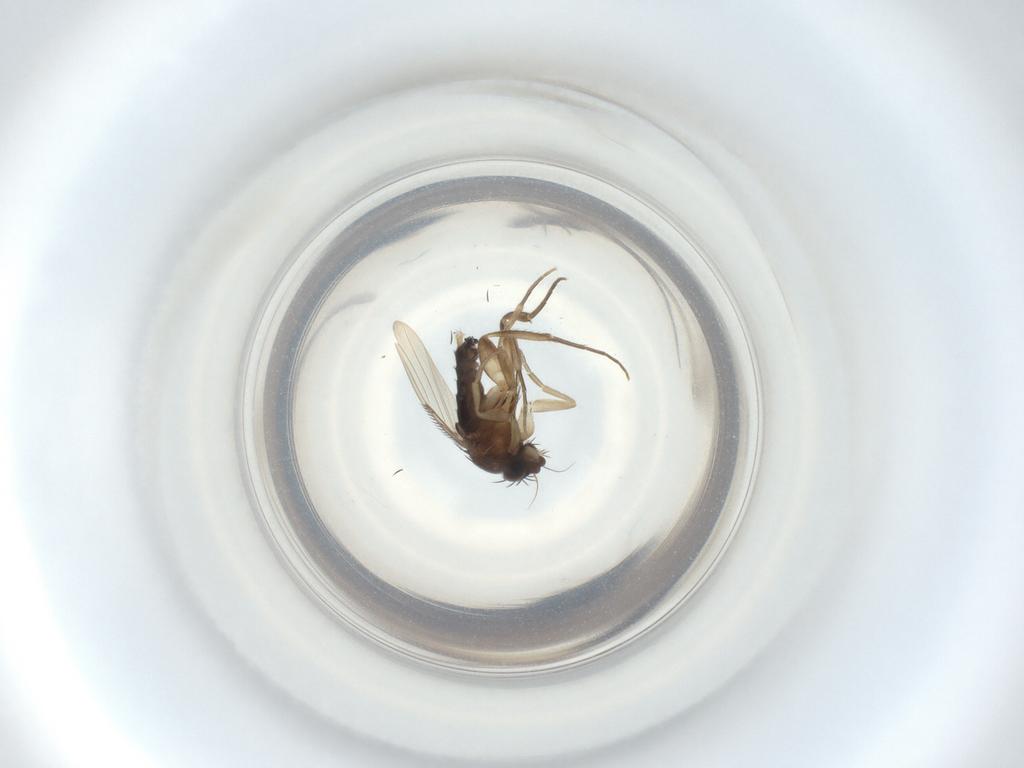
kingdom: Animalia
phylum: Arthropoda
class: Insecta
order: Diptera
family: Phoridae
